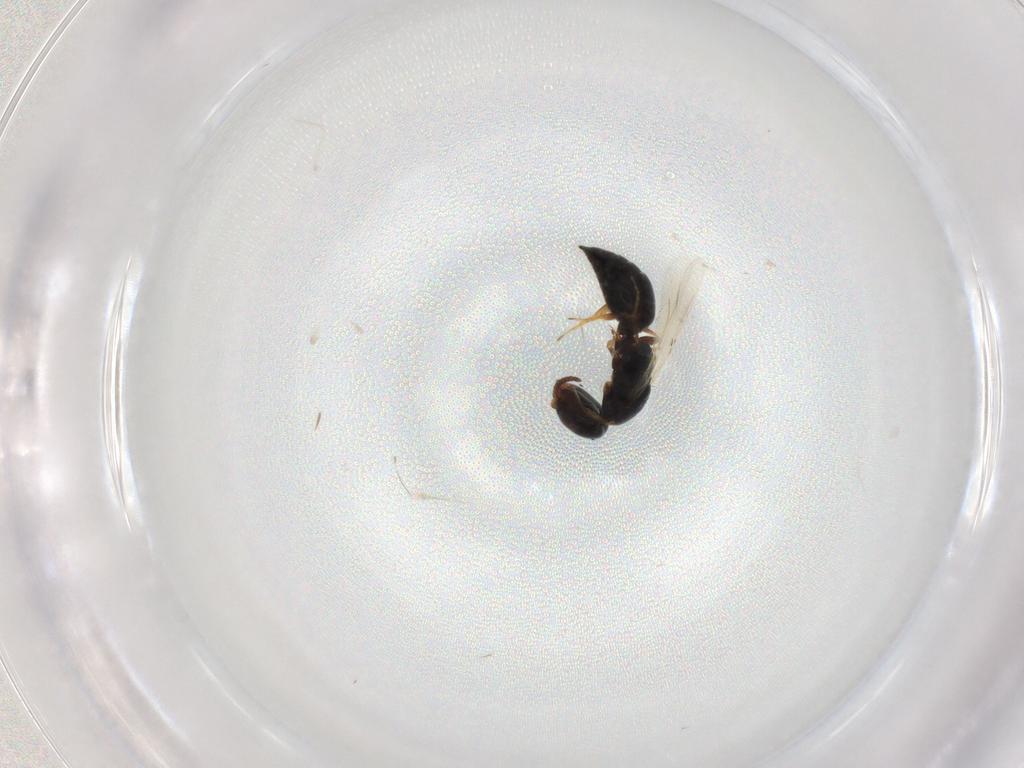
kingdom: Animalia
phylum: Arthropoda
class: Insecta
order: Hymenoptera
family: Bethylidae
